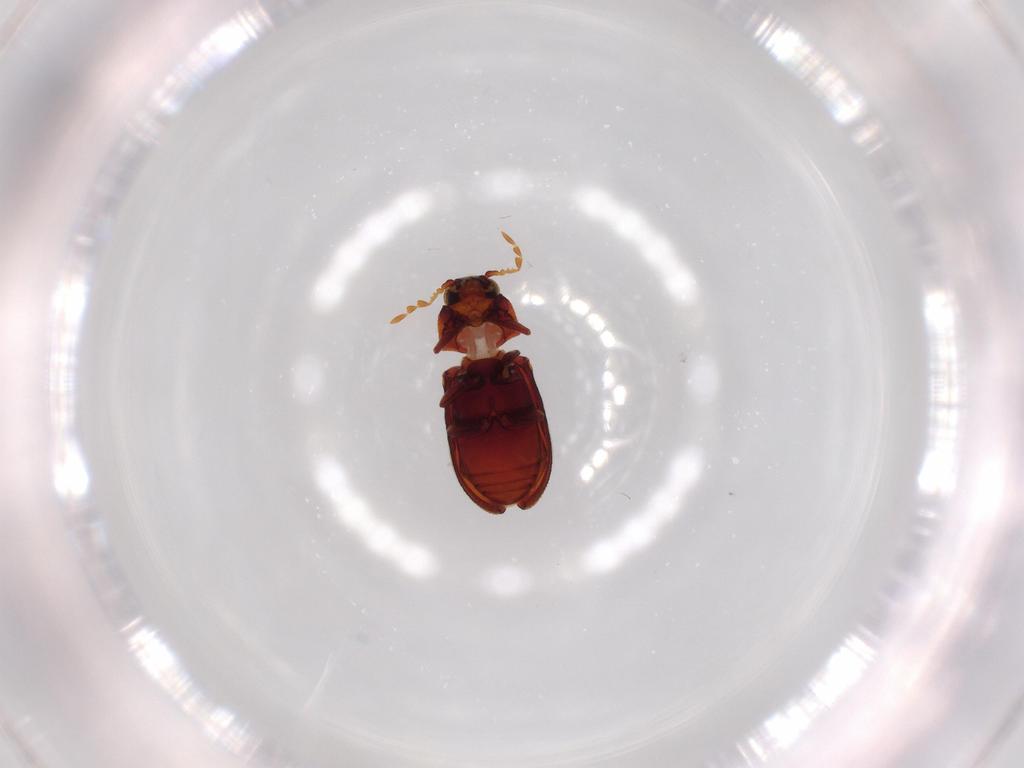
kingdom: Animalia
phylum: Arthropoda
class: Insecta
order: Coleoptera
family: Anobiidae
